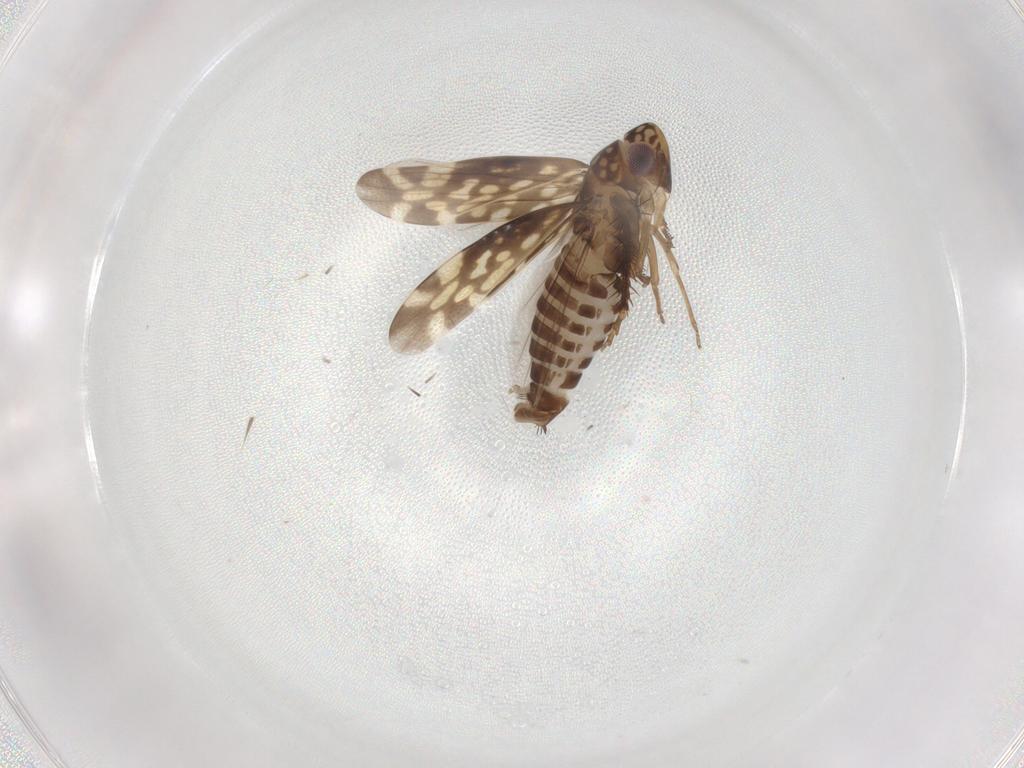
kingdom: Animalia
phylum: Arthropoda
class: Insecta
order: Hemiptera
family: Cicadellidae
